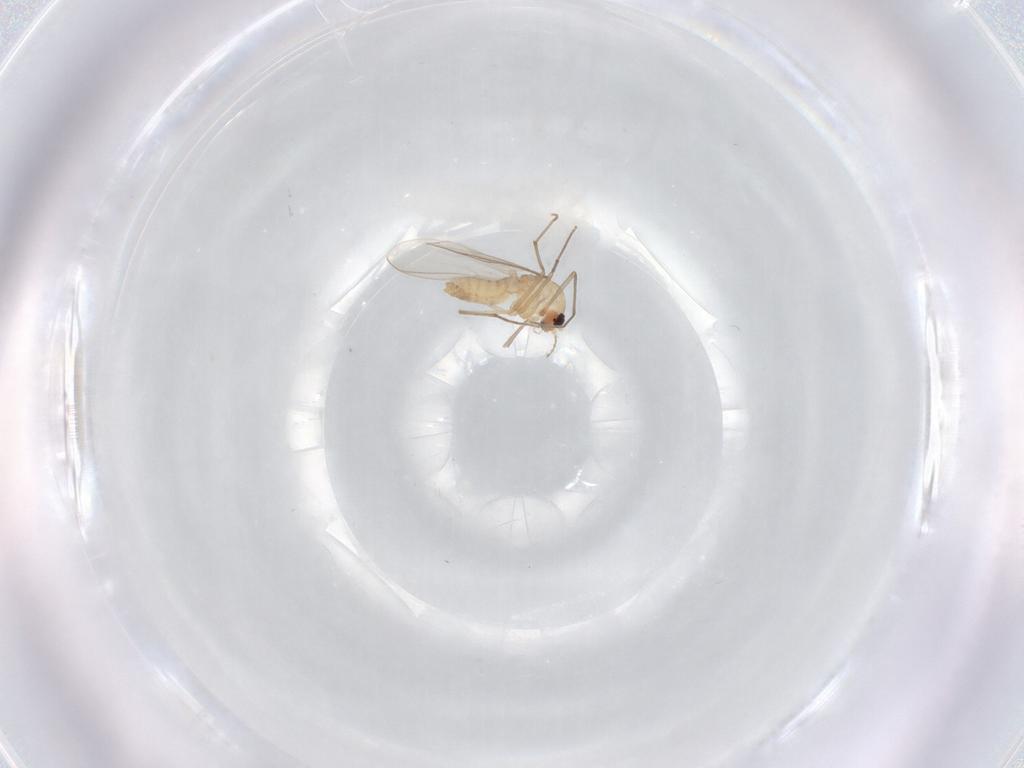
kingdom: Animalia
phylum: Arthropoda
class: Insecta
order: Diptera
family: Chironomidae
